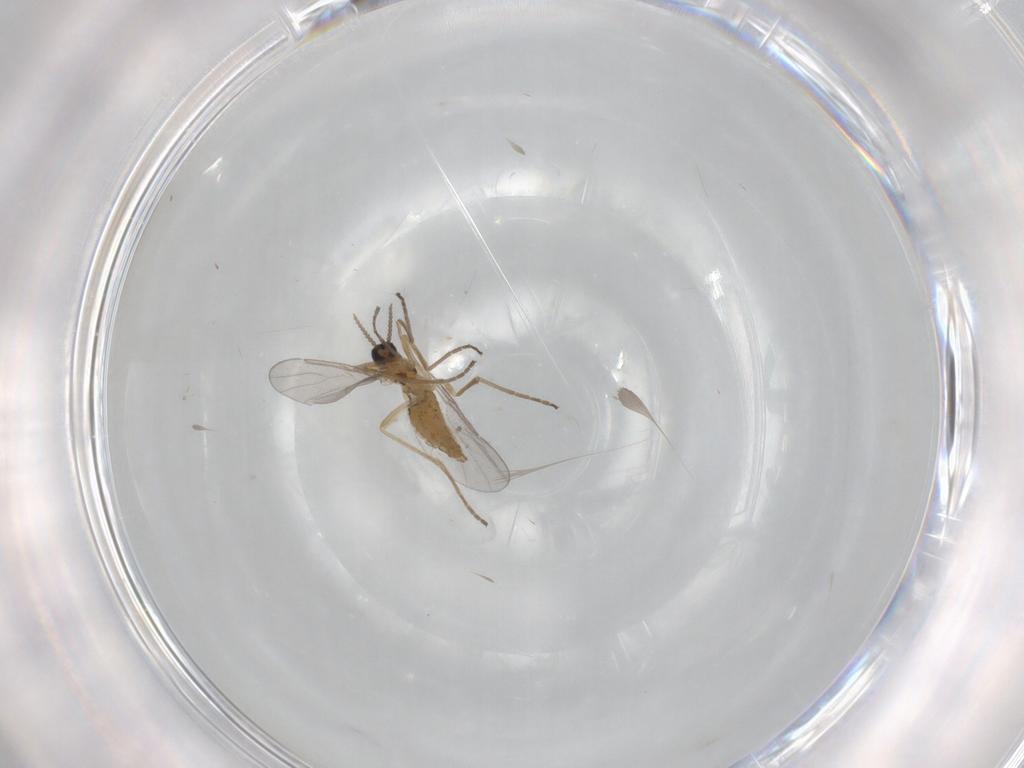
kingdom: Animalia
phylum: Arthropoda
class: Insecta
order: Diptera
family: Cecidomyiidae
